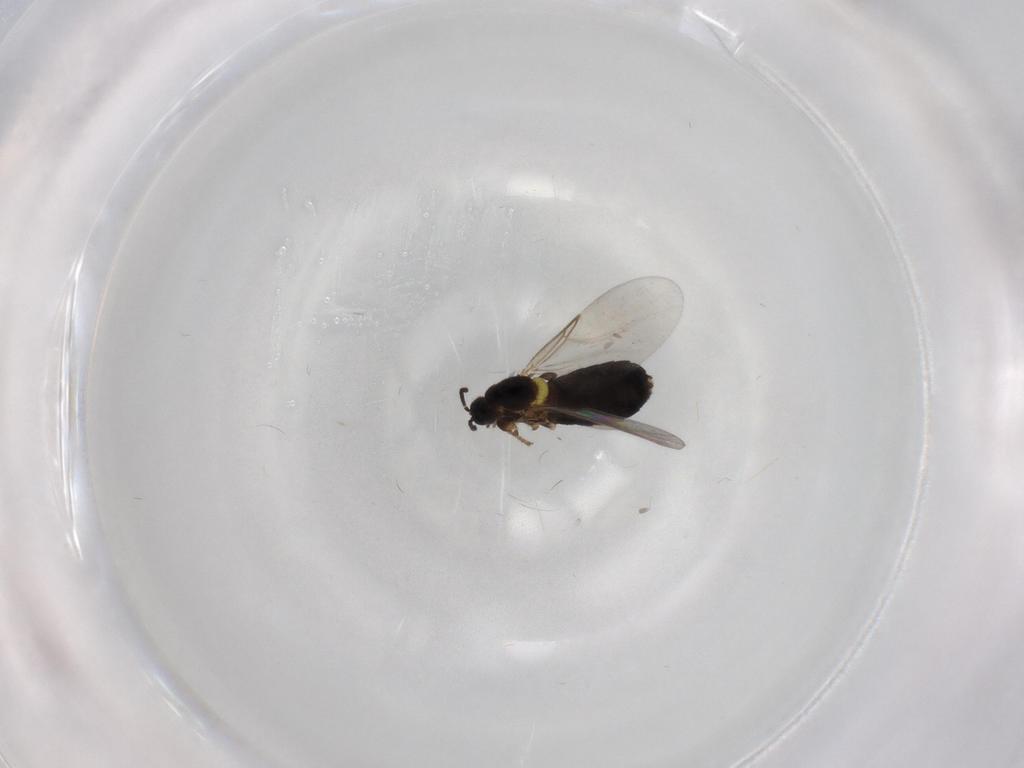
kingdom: Animalia
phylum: Arthropoda
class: Insecta
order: Diptera
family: Scatopsidae
